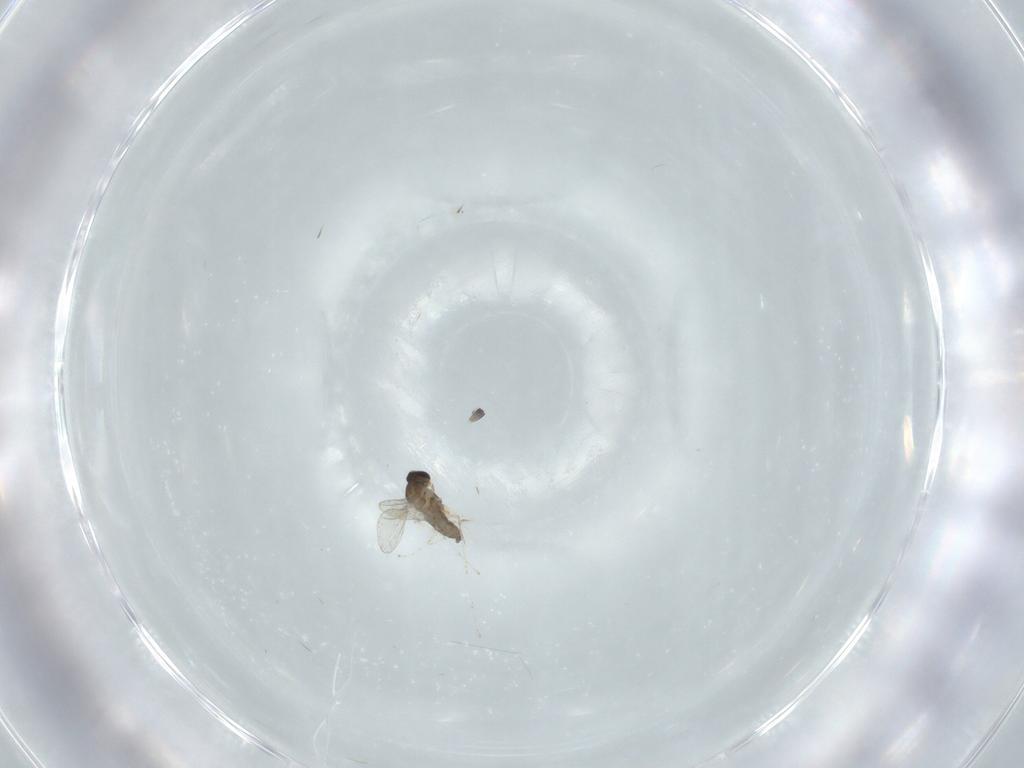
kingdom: Animalia
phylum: Arthropoda
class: Insecta
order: Diptera
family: Cecidomyiidae
